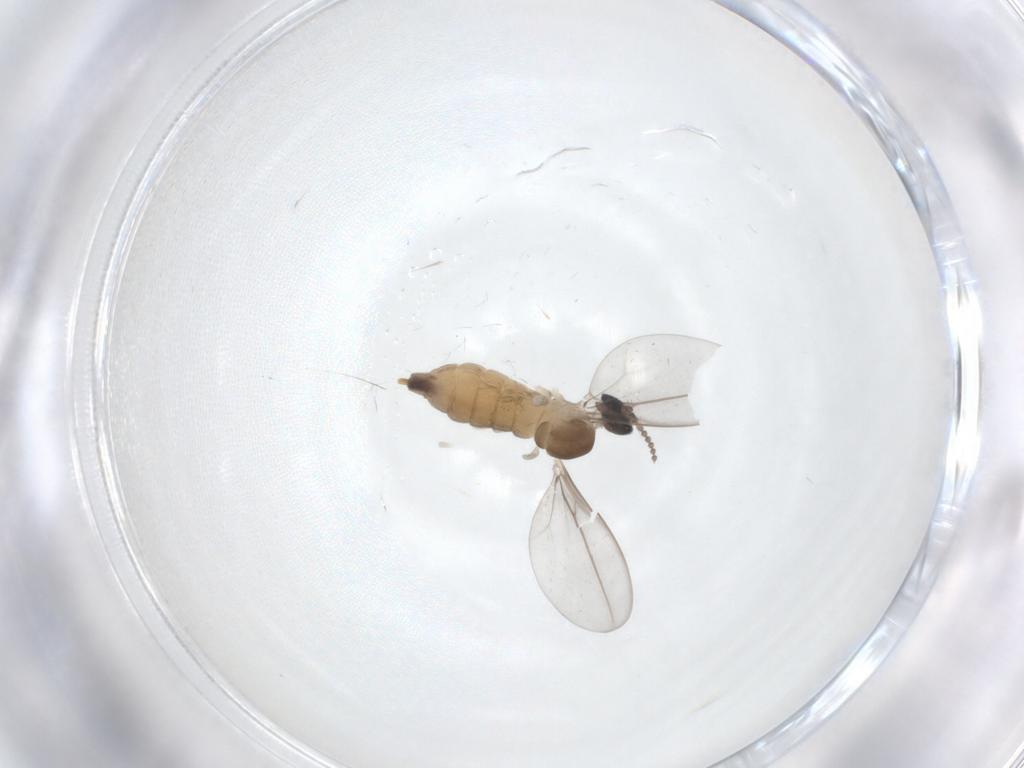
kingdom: Animalia
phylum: Arthropoda
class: Insecta
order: Diptera
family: Cecidomyiidae
